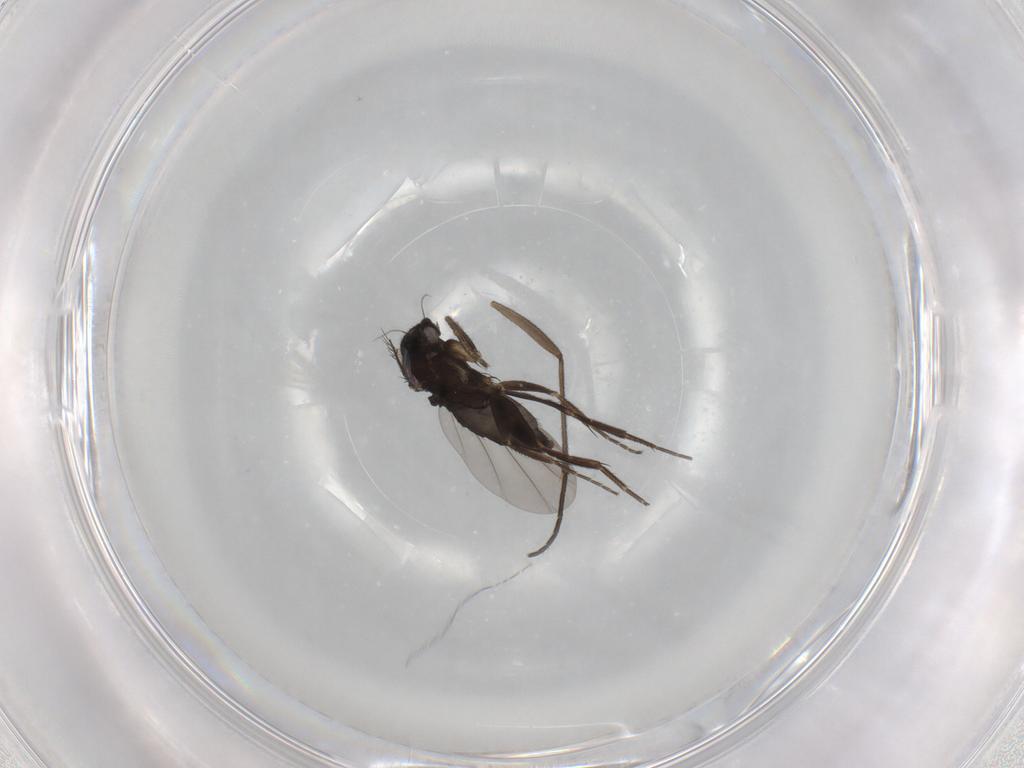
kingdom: Animalia
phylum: Arthropoda
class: Insecta
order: Diptera
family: Phoridae
